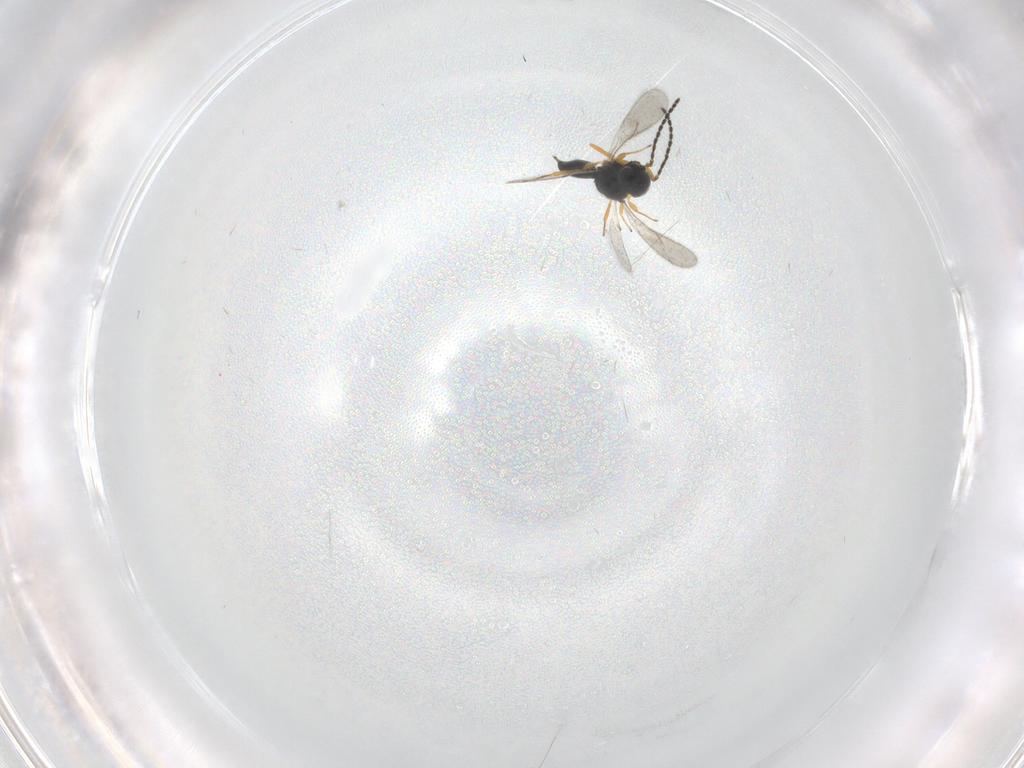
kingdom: Animalia
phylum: Arthropoda
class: Insecta
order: Hymenoptera
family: Scelionidae
